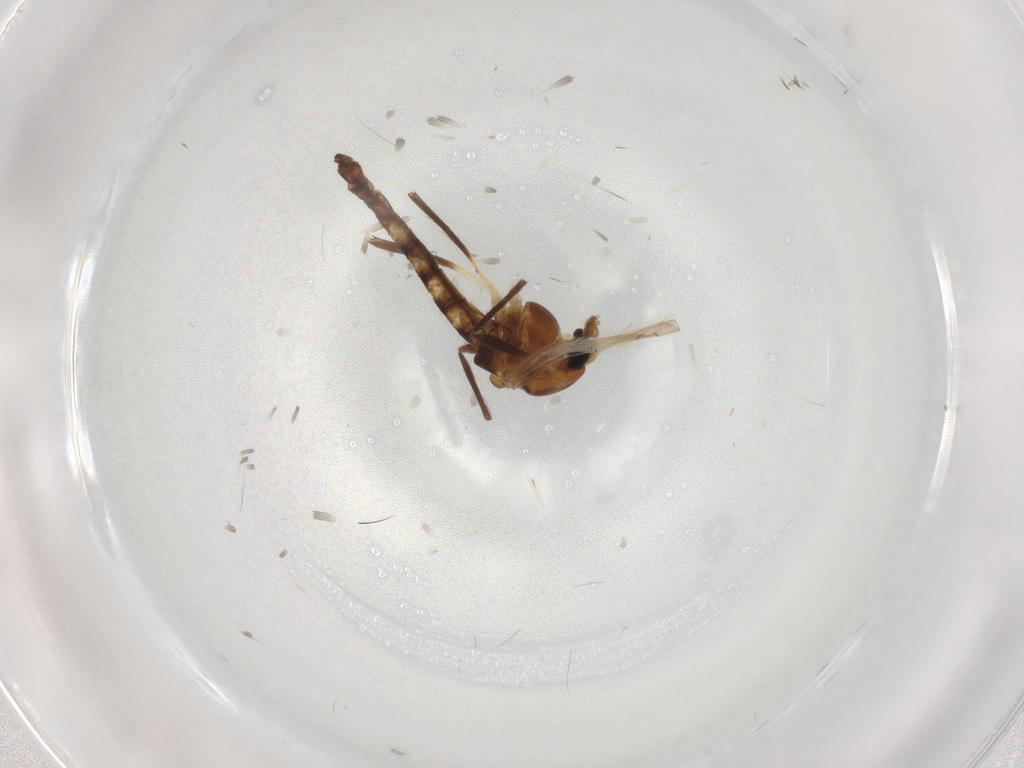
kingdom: Animalia
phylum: Arthropoda
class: Insecta
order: Diptera
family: Chironomidae
